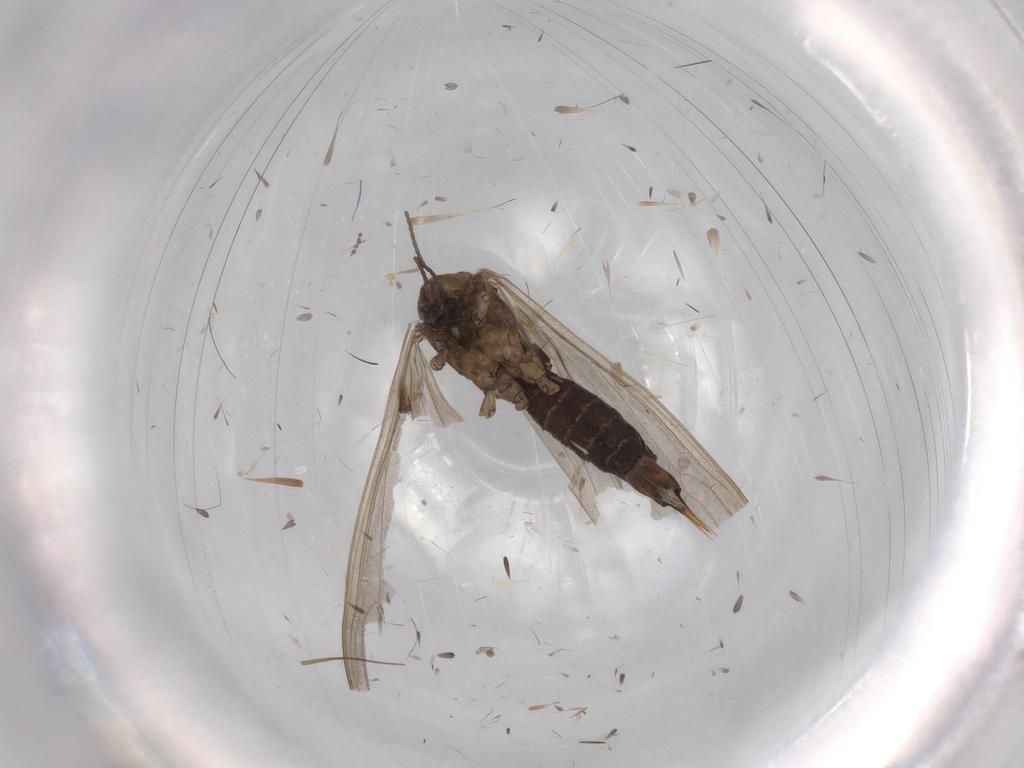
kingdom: Animalia
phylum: Arthropoda
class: Insecta
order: Diptera
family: Limoniidae
